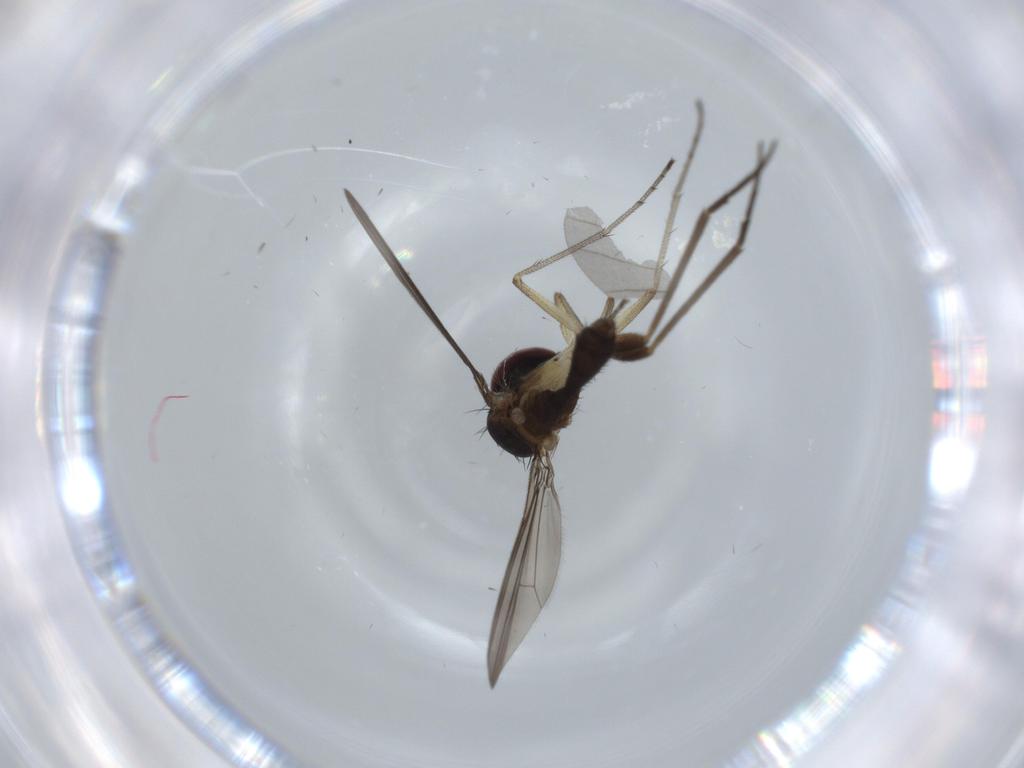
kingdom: Animalia
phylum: Arthropoda
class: Insecta
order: Diptera
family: Dolichopodidae
